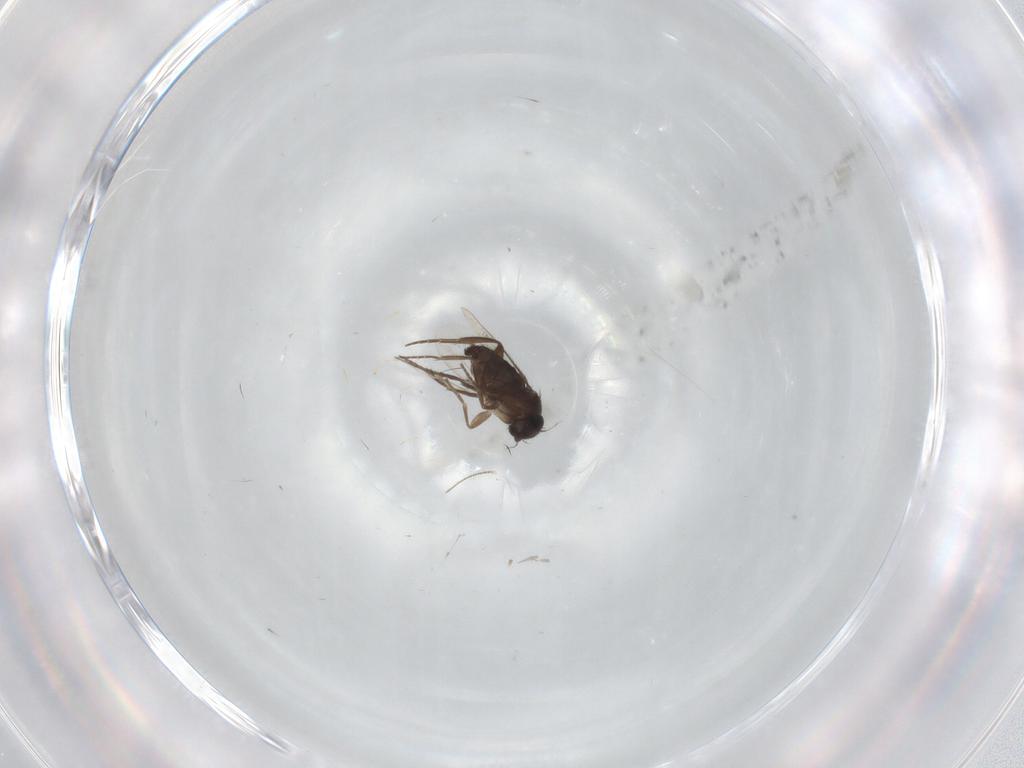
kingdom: Animalia
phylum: Arthropoda
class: Insecta
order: Diptera
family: Phoridae
